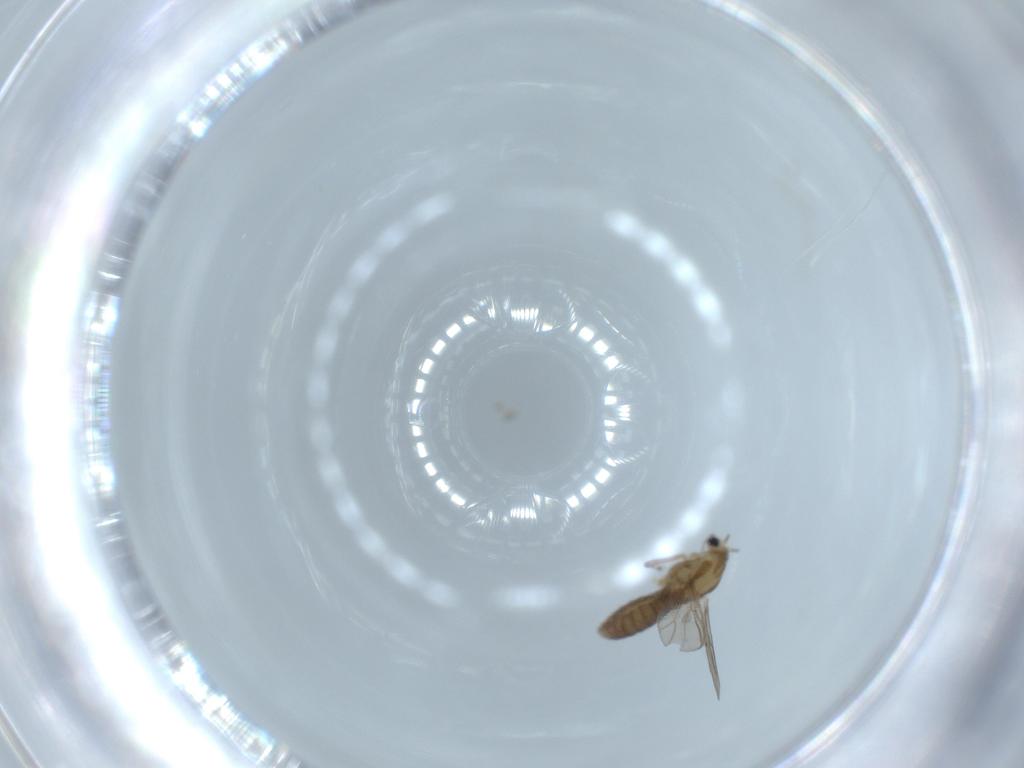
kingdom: Animalia
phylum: Arthropoda
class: Insecta
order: Diptera
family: Chironomidae
